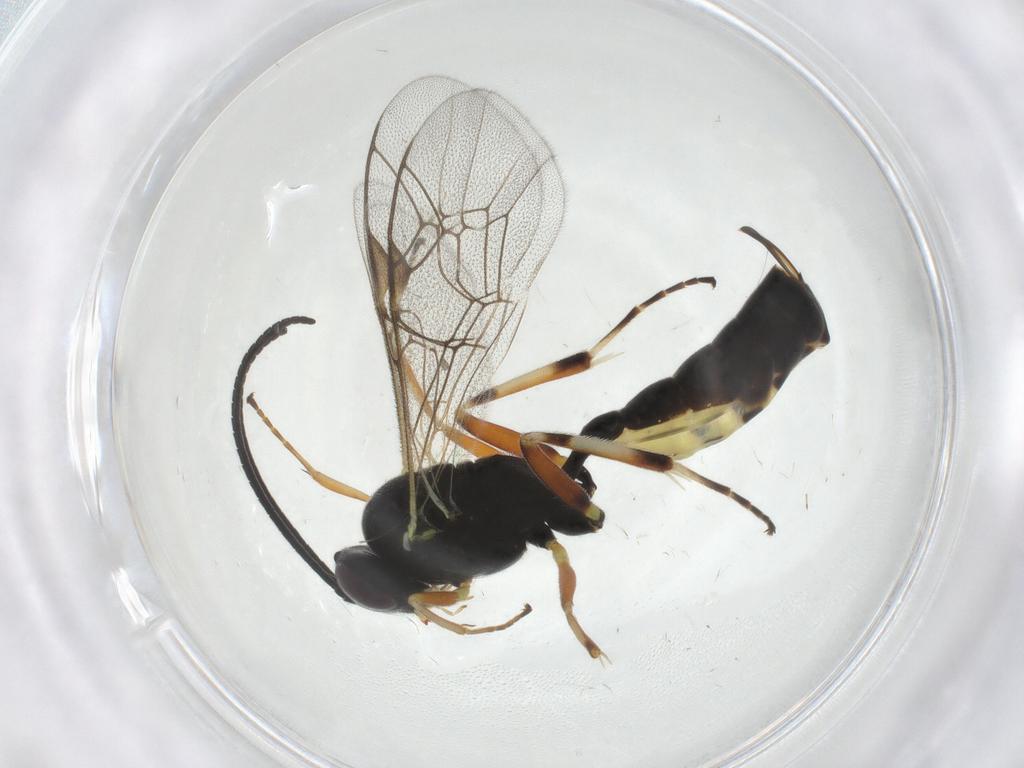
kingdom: Animalia
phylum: Arthropoda
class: Insecta
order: Hymenoptera
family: Ichneumonidae
